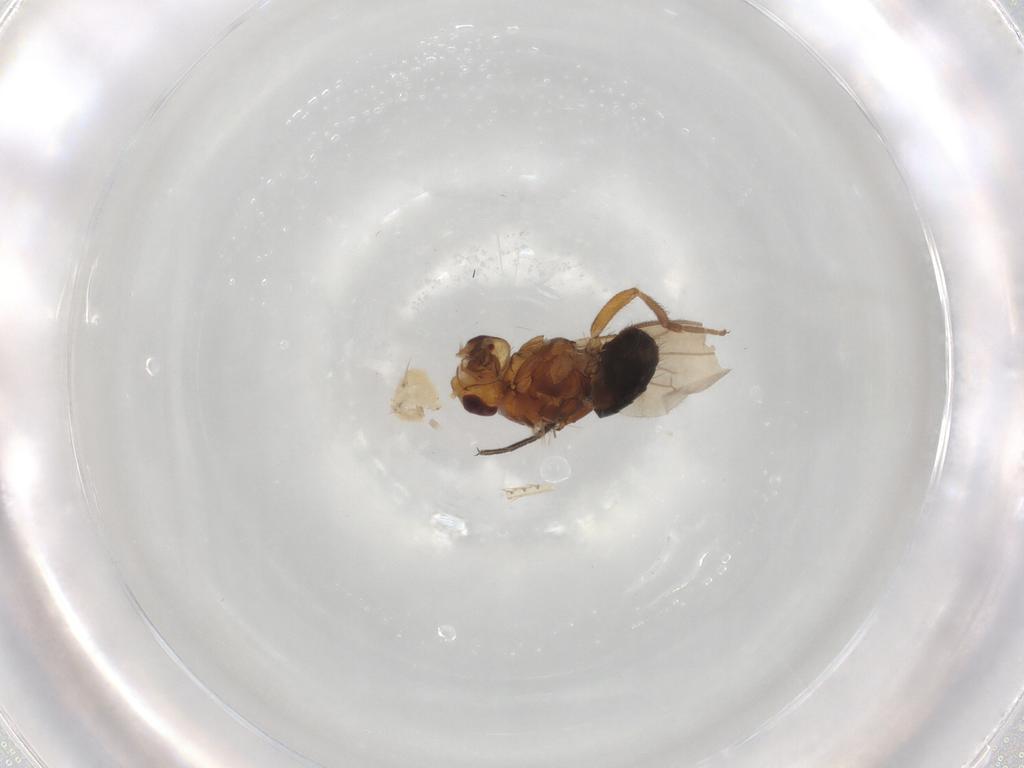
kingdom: Animalia
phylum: Arthropoda
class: Insecta
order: Diptera
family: Sphaeroceridae
